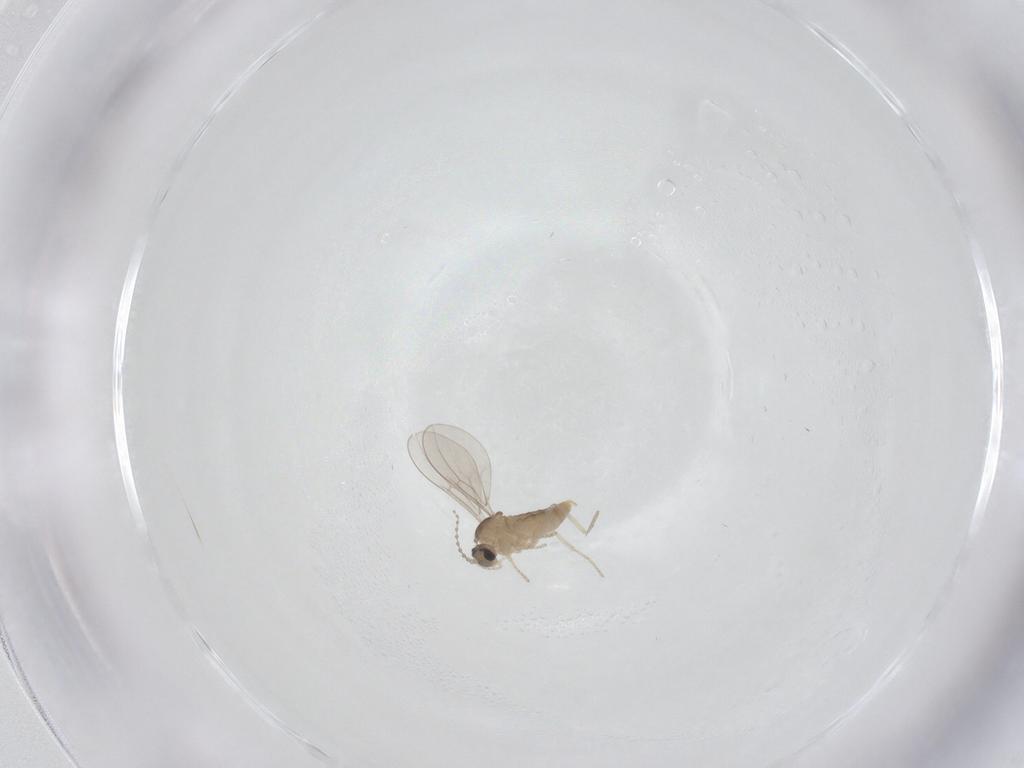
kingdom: Animalia
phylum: Arthropoda
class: Insecta
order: Diptera
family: Cecidomyiidae
